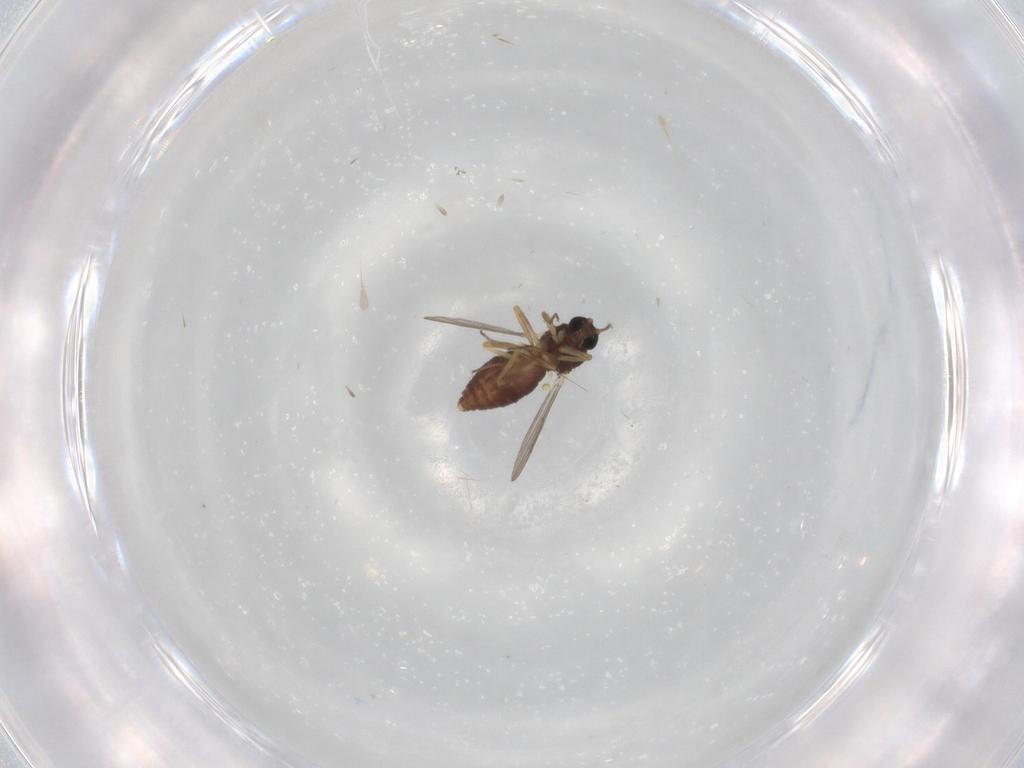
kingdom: Animalia
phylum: Arthropoda
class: Insecta
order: Diptera
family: Ceratopogonidae
